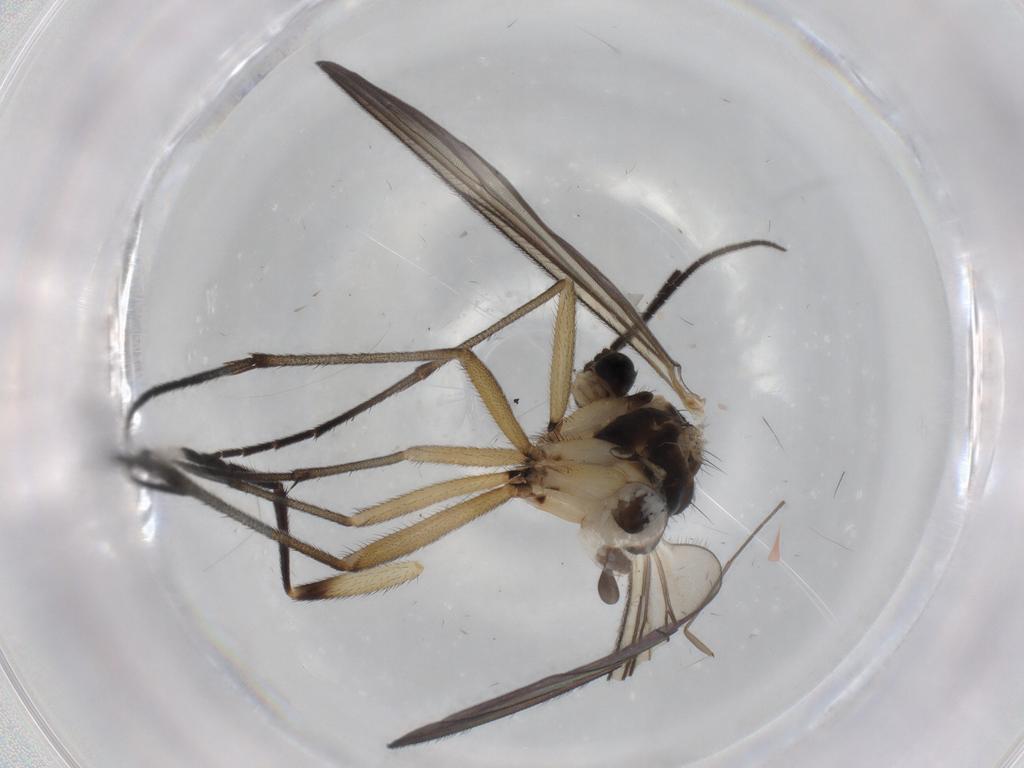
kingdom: Animalia
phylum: Arthropoda
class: Insecta
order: Diptera
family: Sciaridae
